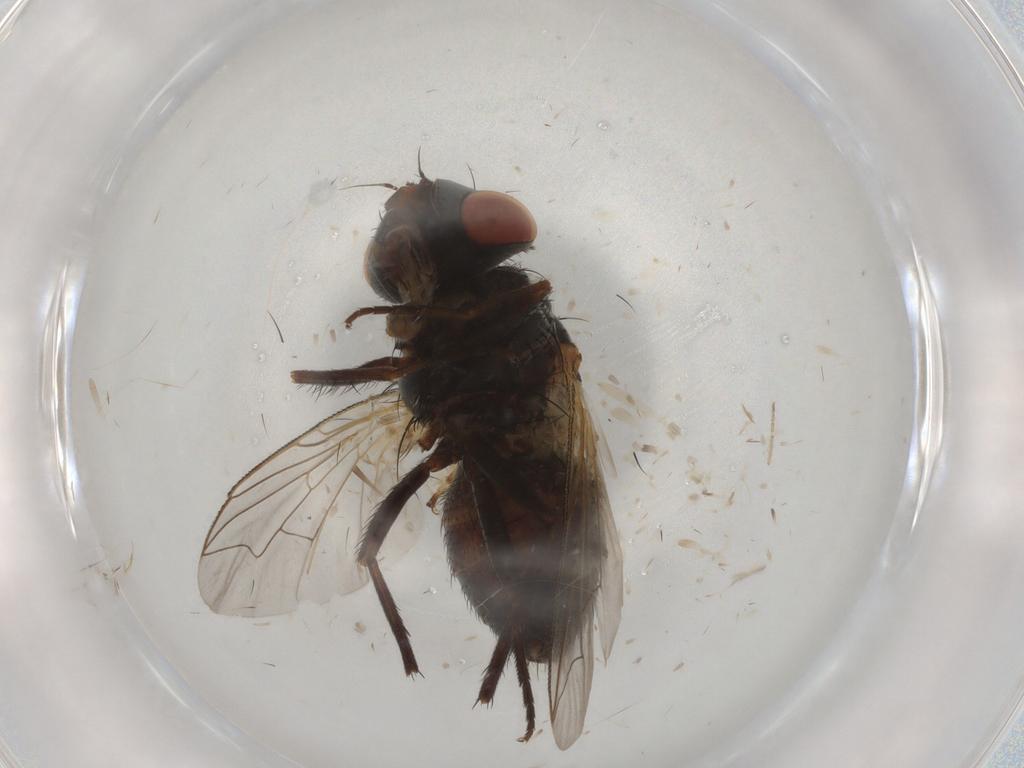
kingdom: Animalia
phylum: Arthropoda
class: Insecta
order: Diptera
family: Sarcophagidae
